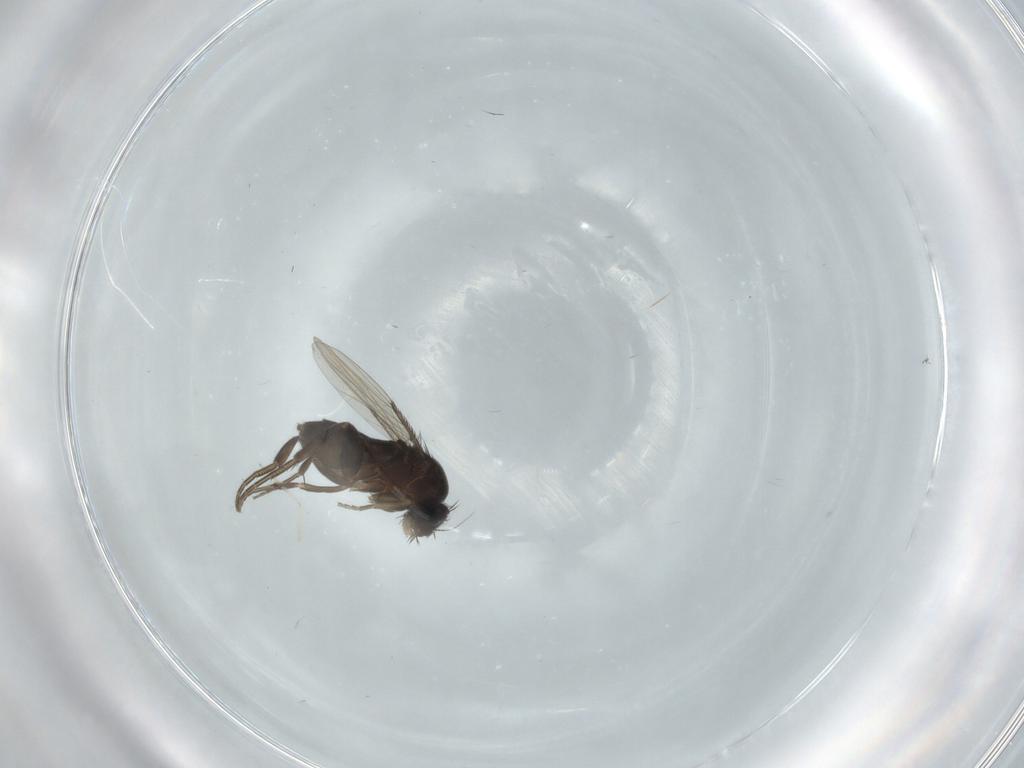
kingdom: Animalia
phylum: Arthropoda
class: Insecta
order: Diptera
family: Phoridae
